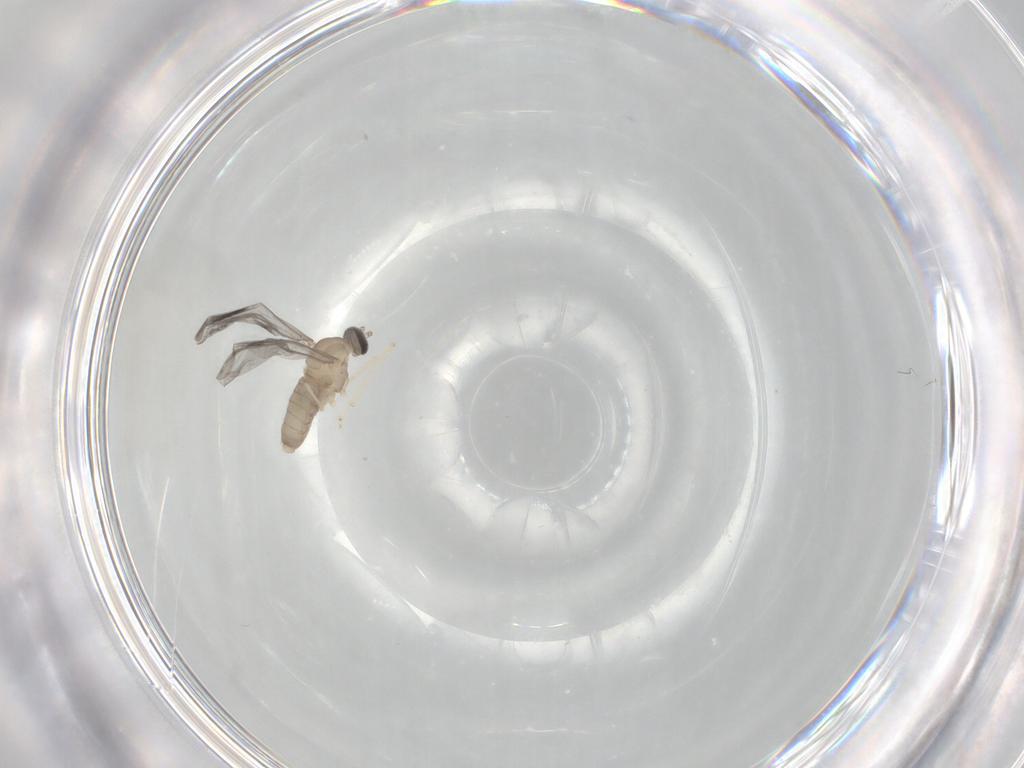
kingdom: Animalia
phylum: Arthropoda
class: Insecta
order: Diptera
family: Cecidomyiidae
